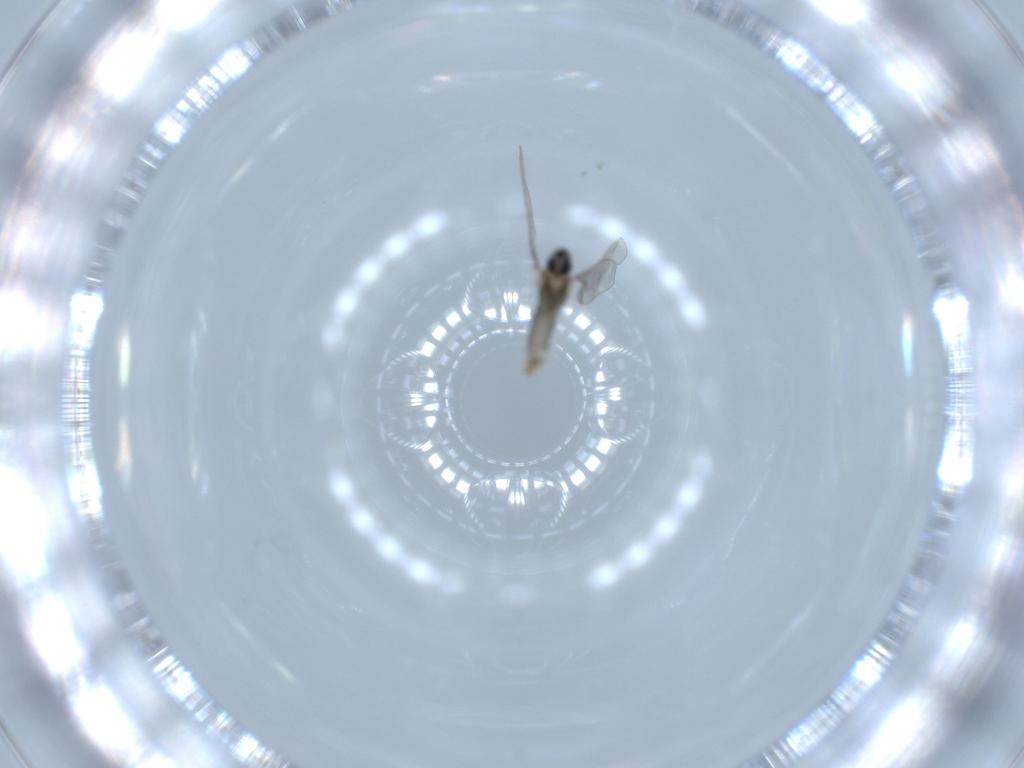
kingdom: Animalia
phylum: Arthropoda
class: Insecta
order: Diptera
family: Cecidomyiidae
